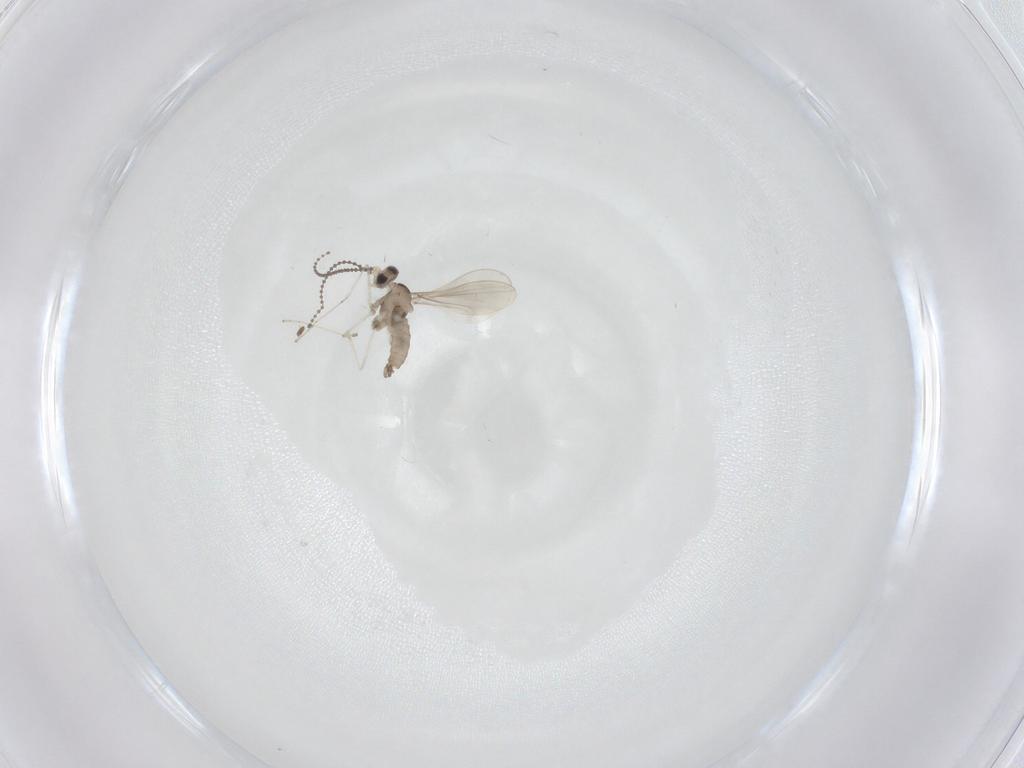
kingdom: Animalia
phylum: Arthropoda
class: Insecta
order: Diptera
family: Cecidomyiidae
